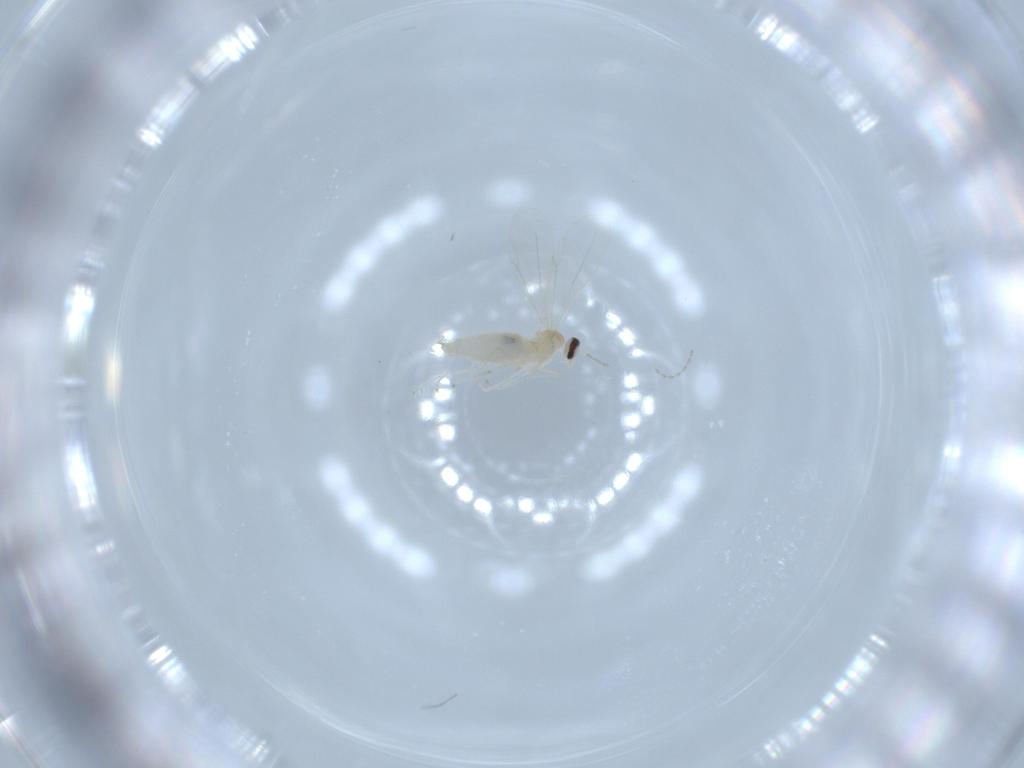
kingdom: Animalia
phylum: Arthropoda
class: Insecta
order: Diptera
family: Cecidomyiidae
